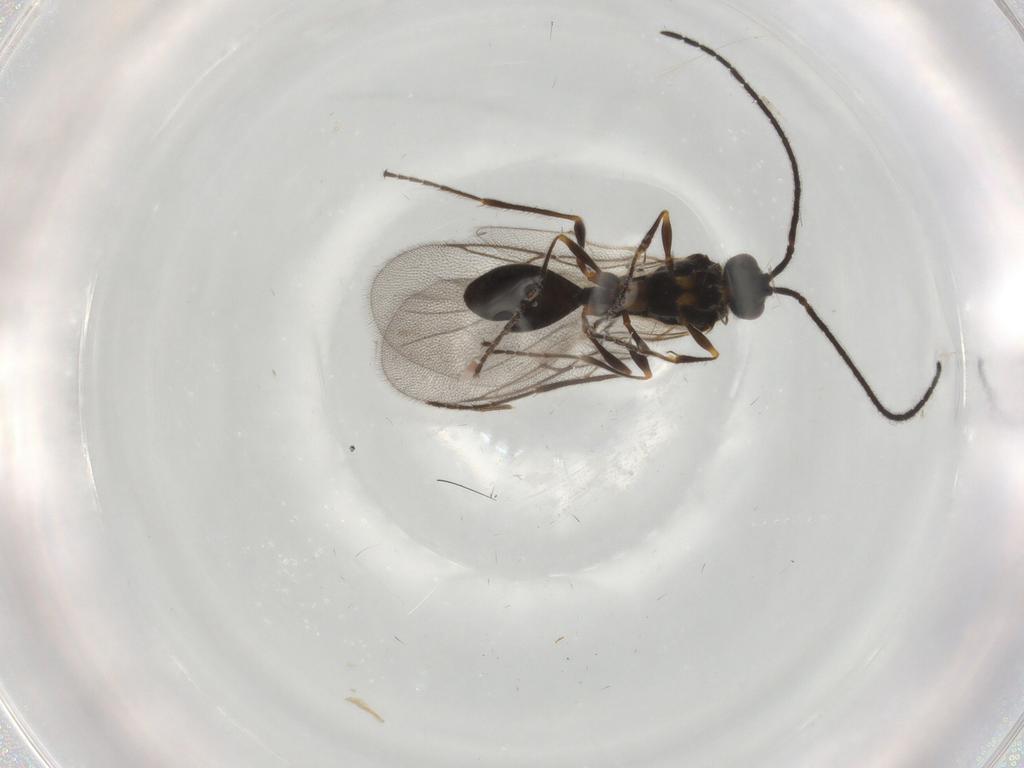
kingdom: Animalia
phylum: Arthropoda
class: Insecta
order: Hymenoptera
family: Diapriidae
